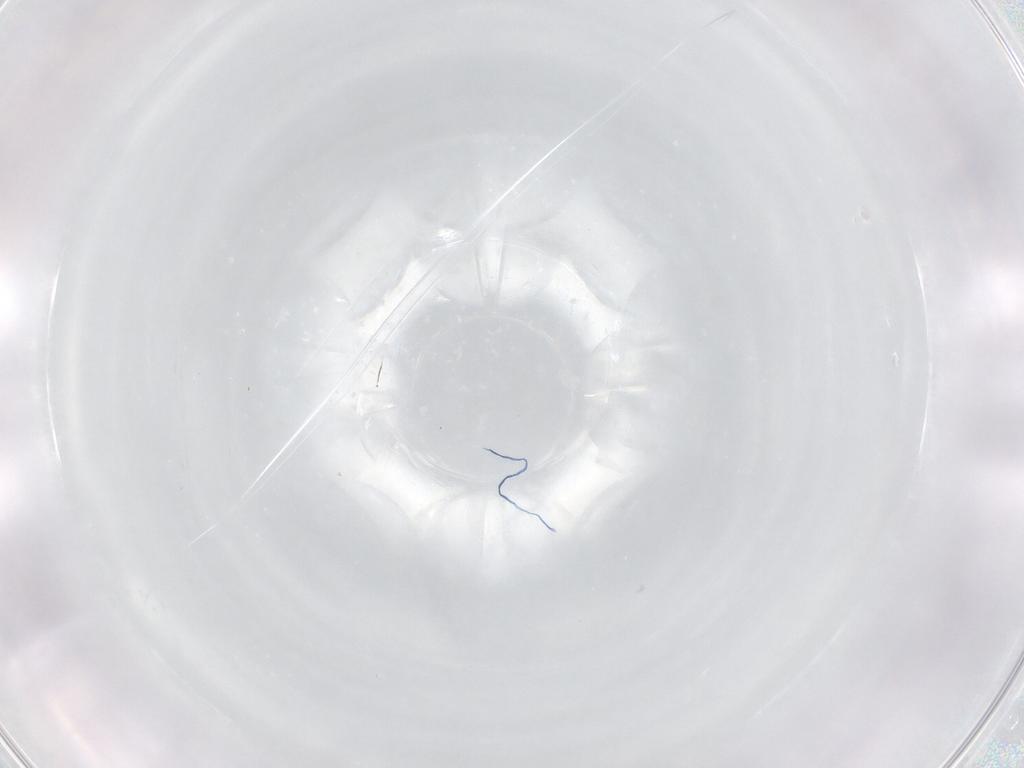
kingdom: Animalia
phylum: Arthropoda
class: Arachnida
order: Trombidiformes
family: Cunaxidae
